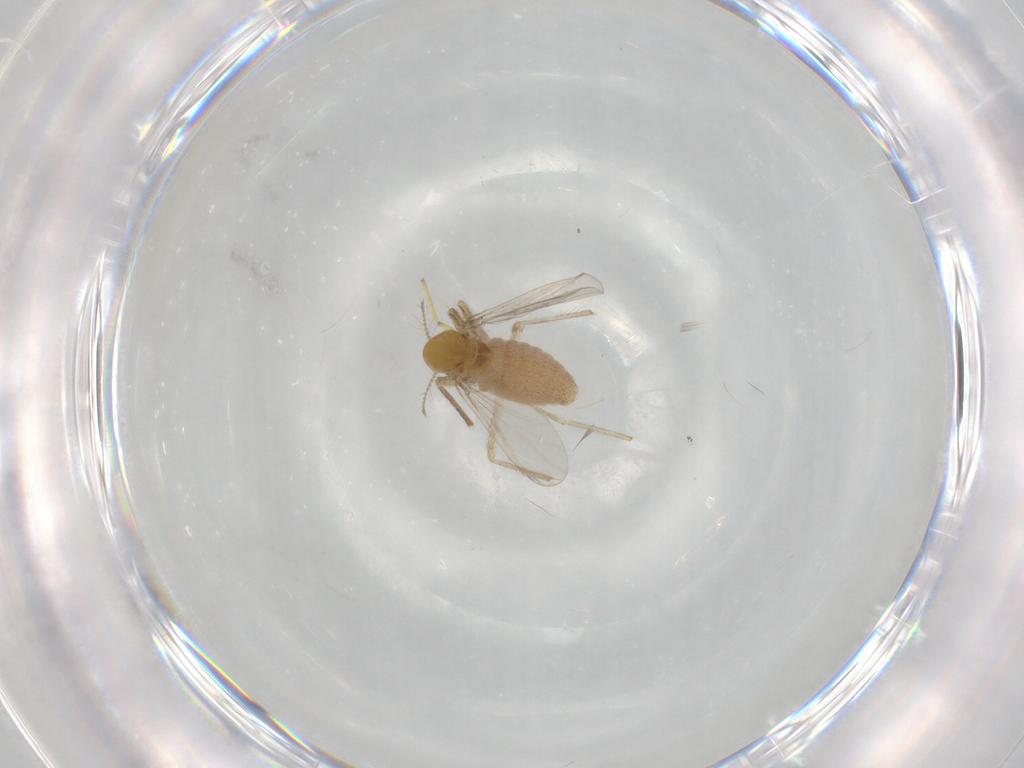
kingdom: Animalia
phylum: Arthropoda
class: Insecta
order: Diptera
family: Chironomidae
